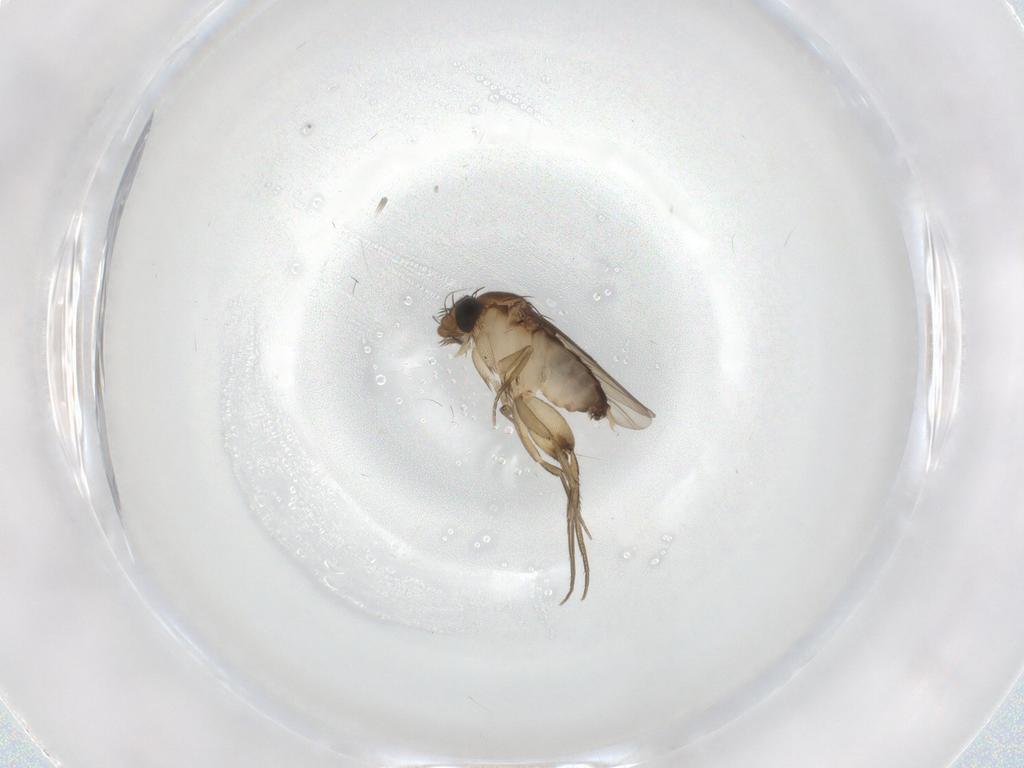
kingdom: Animalia
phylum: Arthropoda
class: Insecta
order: Diptera
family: Phoridae
